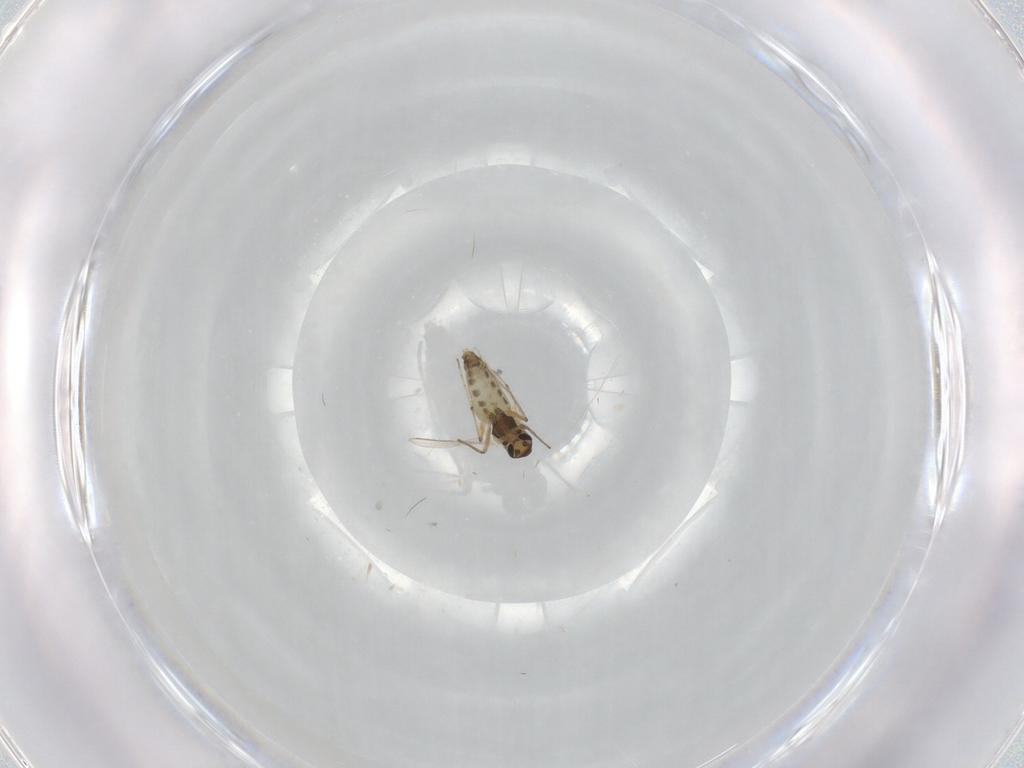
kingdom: Animalia
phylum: Arthropoda
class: Insecta
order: Diptera
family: Chironomidae
